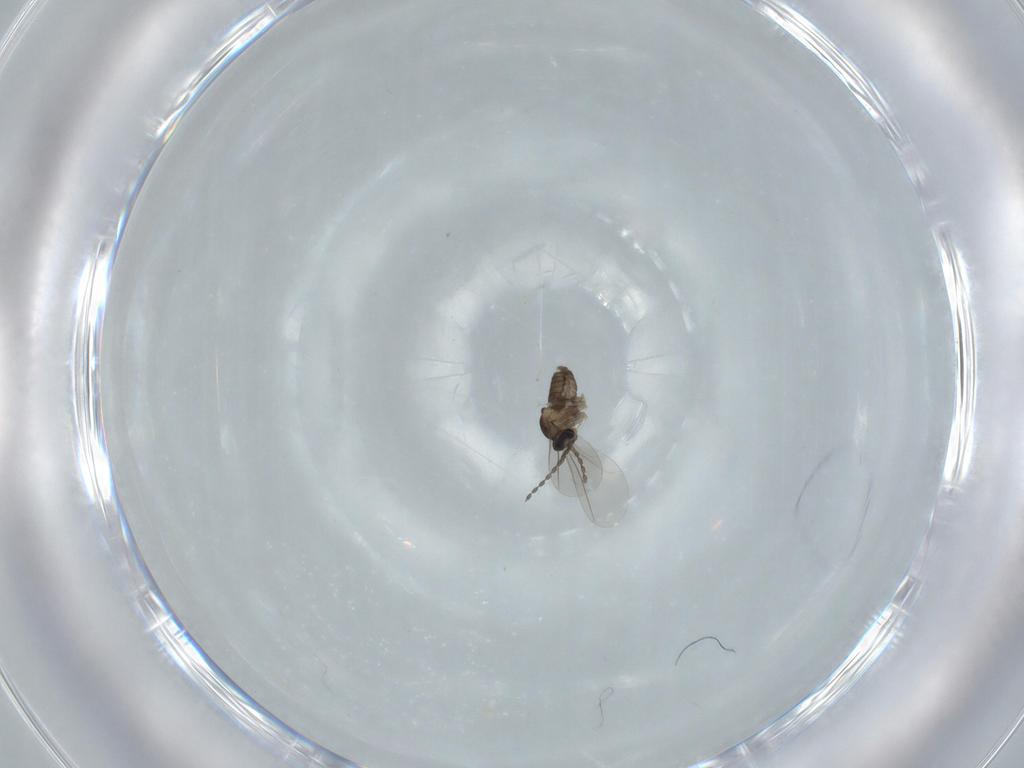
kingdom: Animalia
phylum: Arthropoda
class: Insecta
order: Diptera
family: Cecidomyiidae
